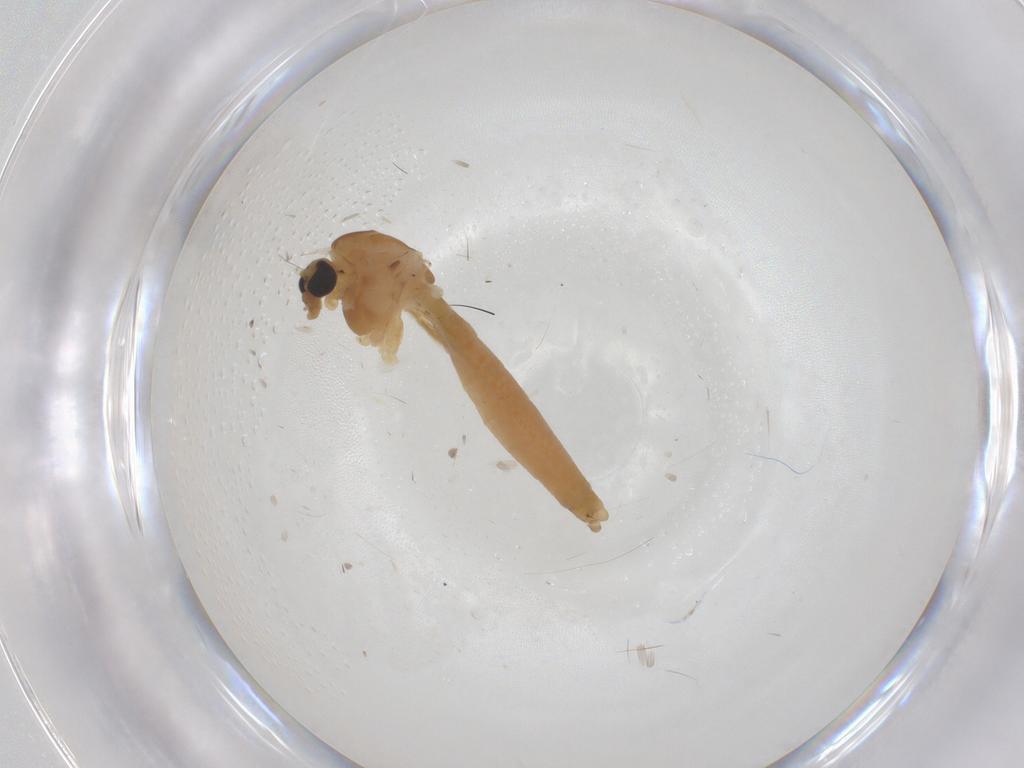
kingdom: Animalia
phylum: Arthropoda
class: Insecta
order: Diptera
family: Chironomidae
